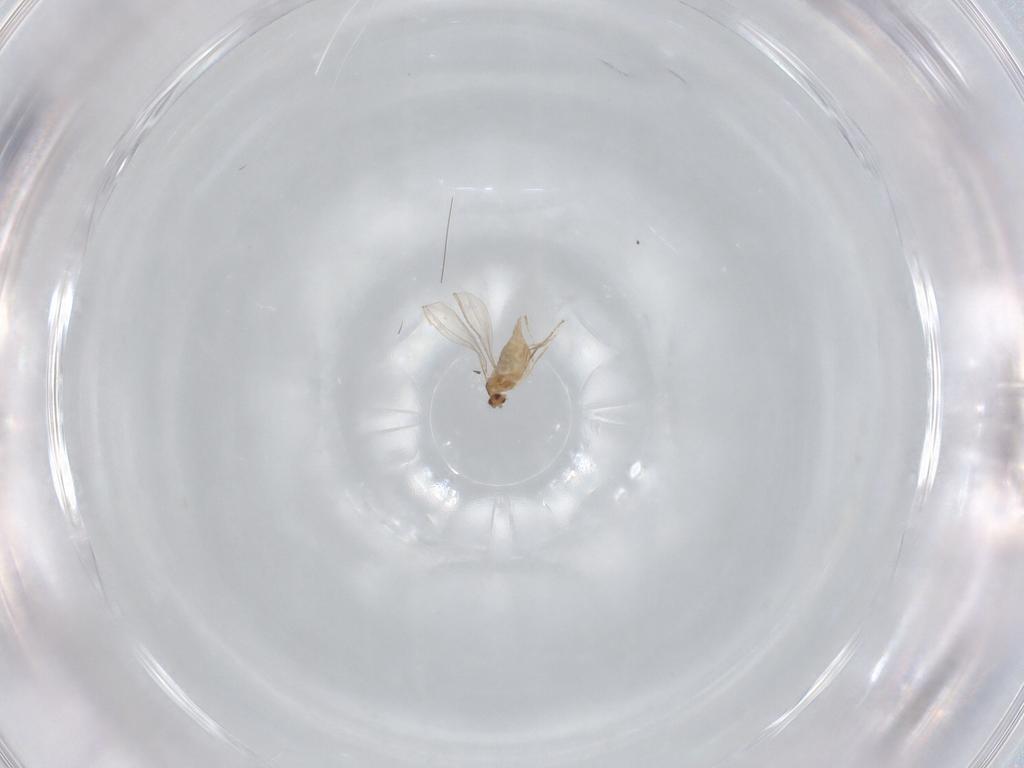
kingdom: Animalia
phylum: Arthropoda
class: Insecta
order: Diptera
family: Cecidomyiidae
